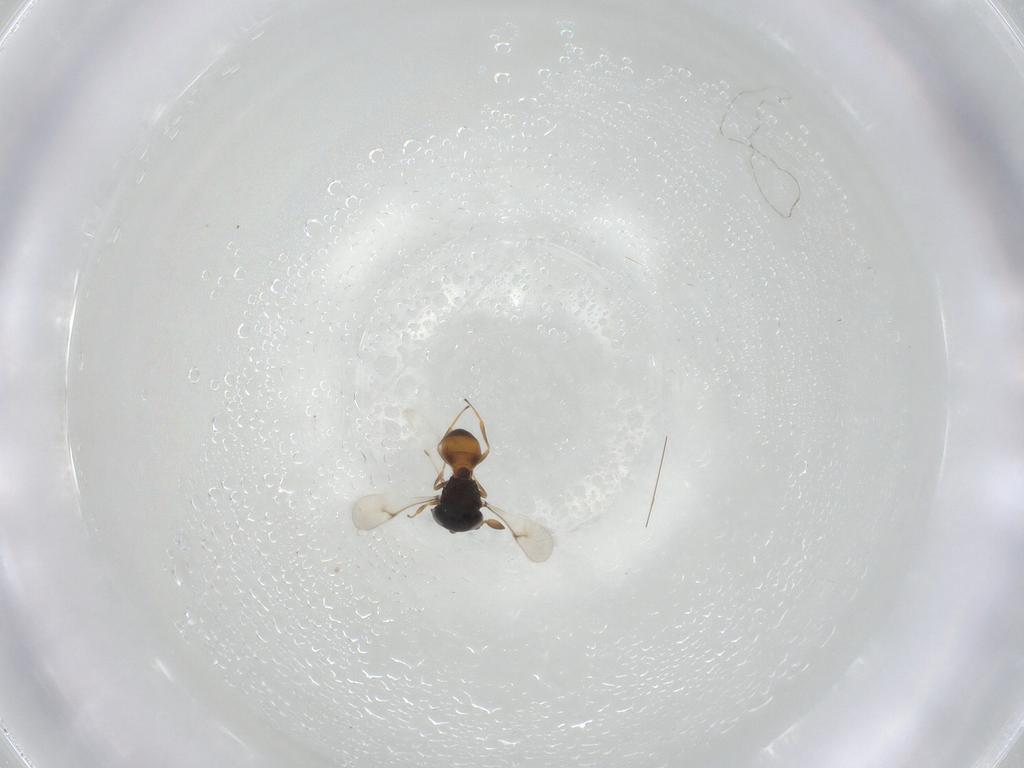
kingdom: Animalia
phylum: Arthropoda
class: Insecta
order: Hymenoptera
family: Scelionidae
